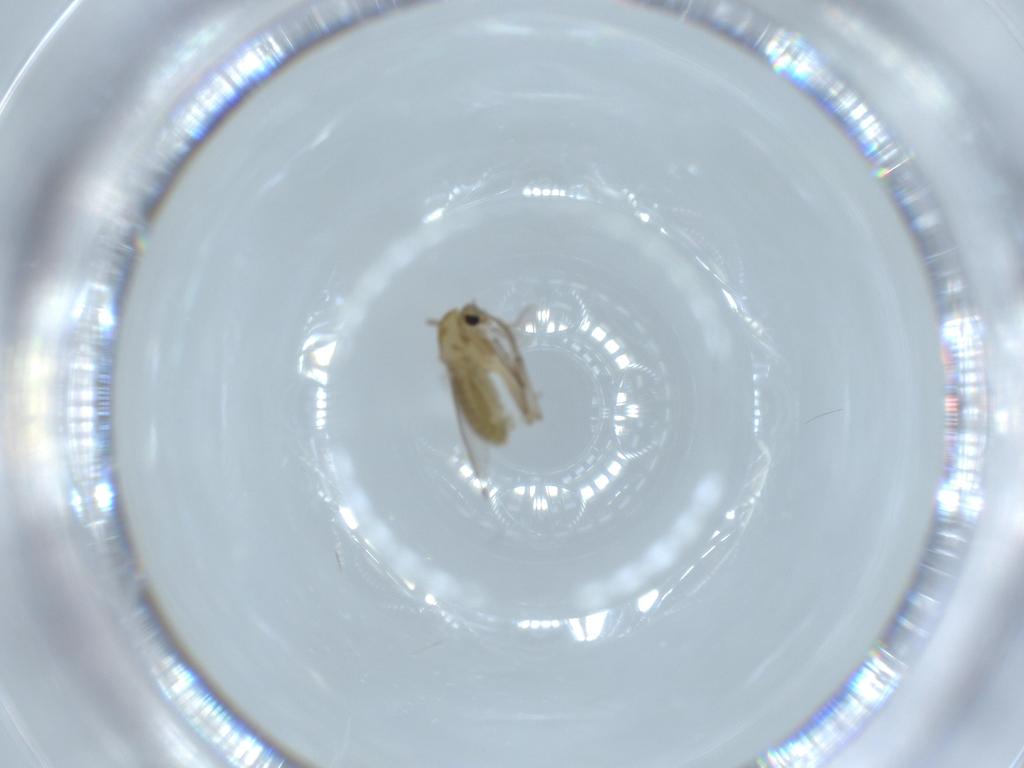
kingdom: Animalia
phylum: Arthropoda
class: Insecta
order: Diptera
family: Chironomidae
